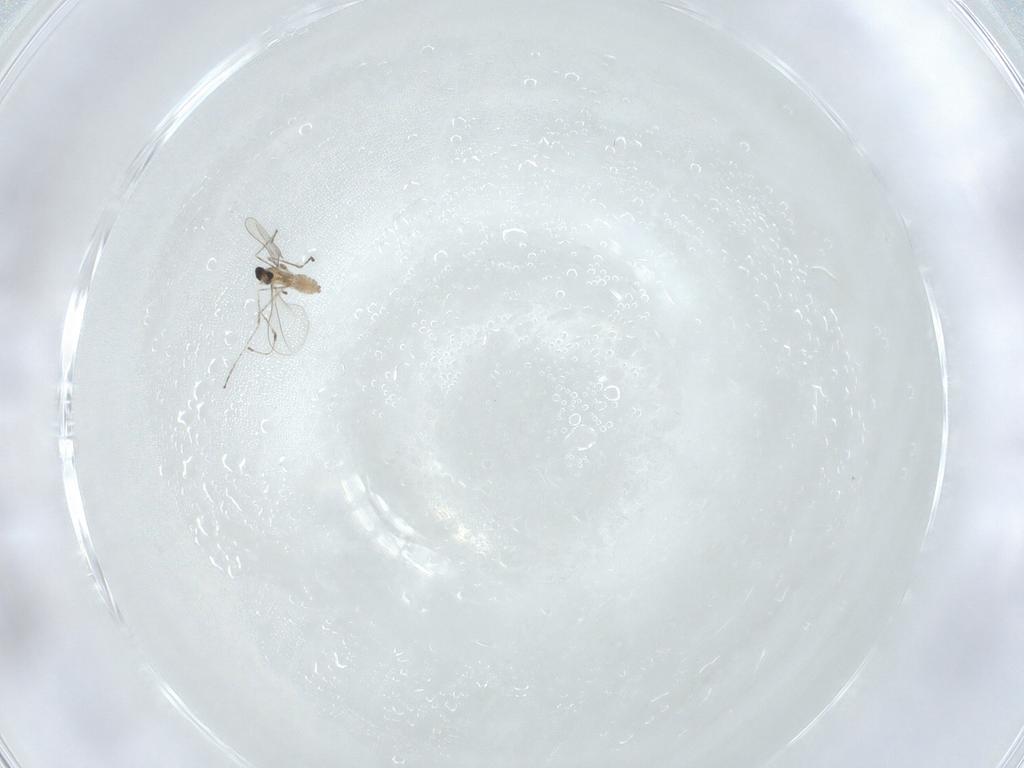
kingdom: Animalia
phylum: Arthropoda
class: Insecta
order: Diptera
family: Cecidomyiidae
